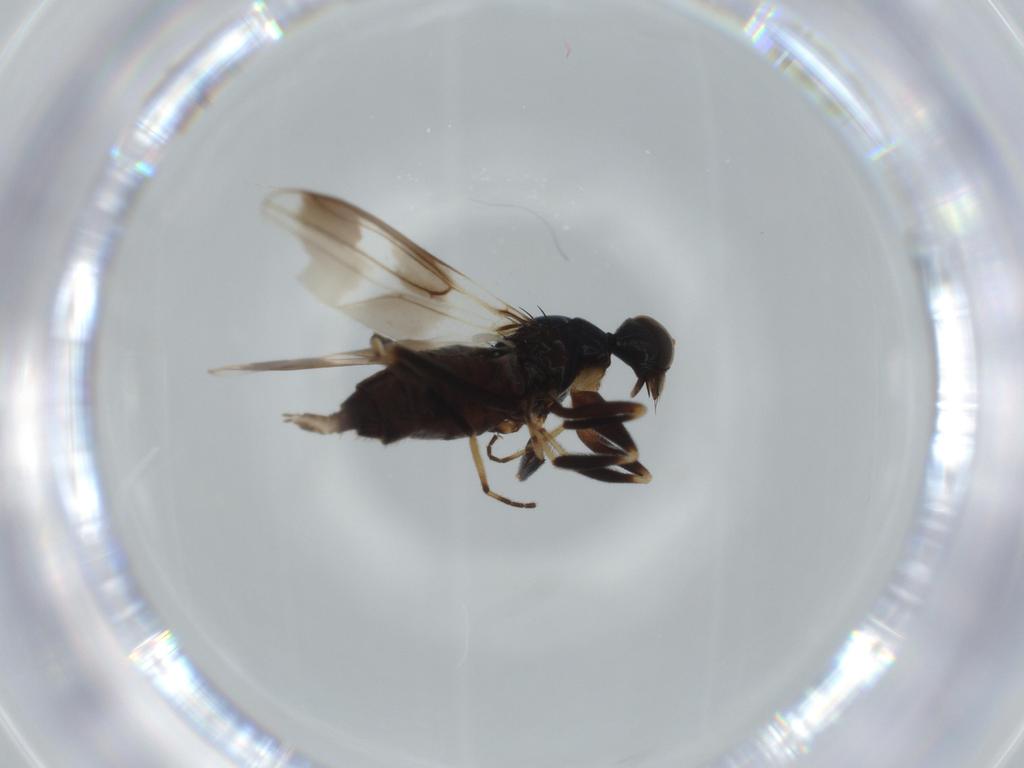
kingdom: Animalia
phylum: Arthropoda
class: Insecta
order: Diptera
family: Hybotidae
